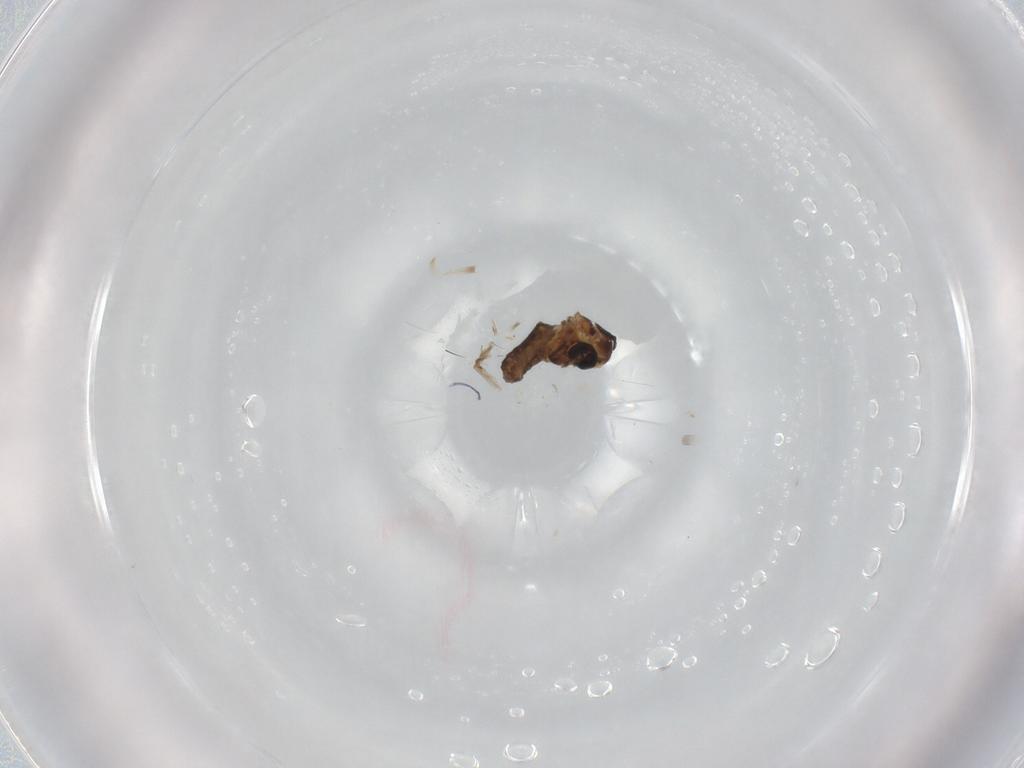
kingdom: Animalia
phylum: Arthropoda
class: Insecta
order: Diptera
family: Ceratopogonidae
